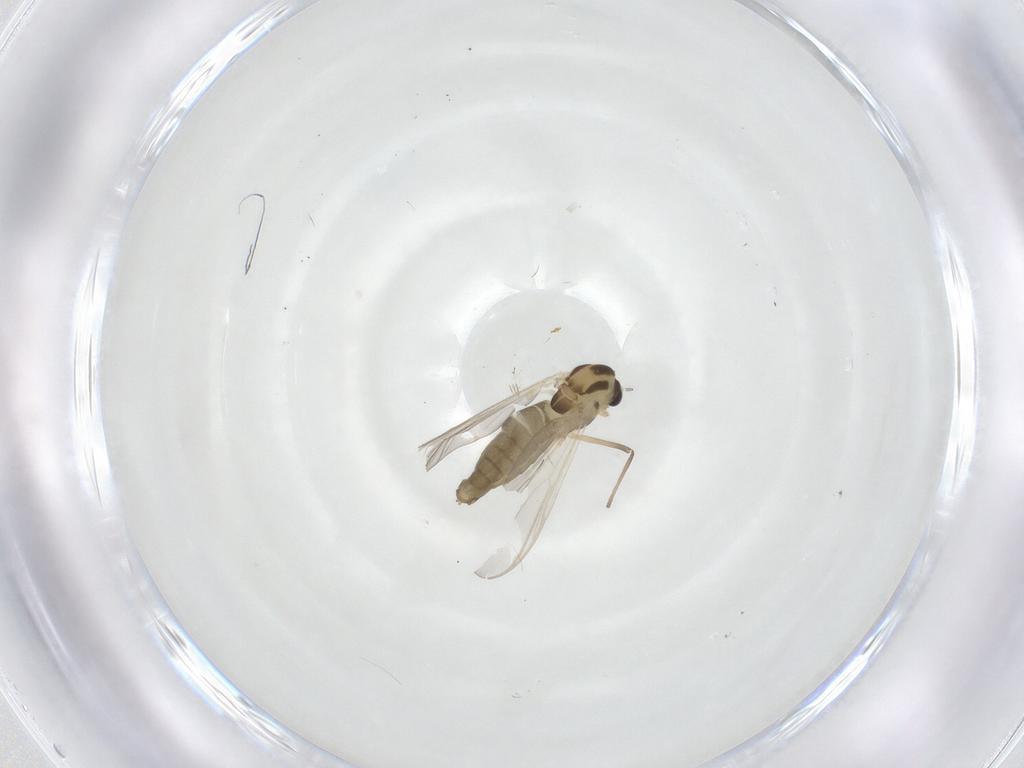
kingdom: Animalia
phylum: Arthropoda
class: Insecta
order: Diptera
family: Chironomidae
